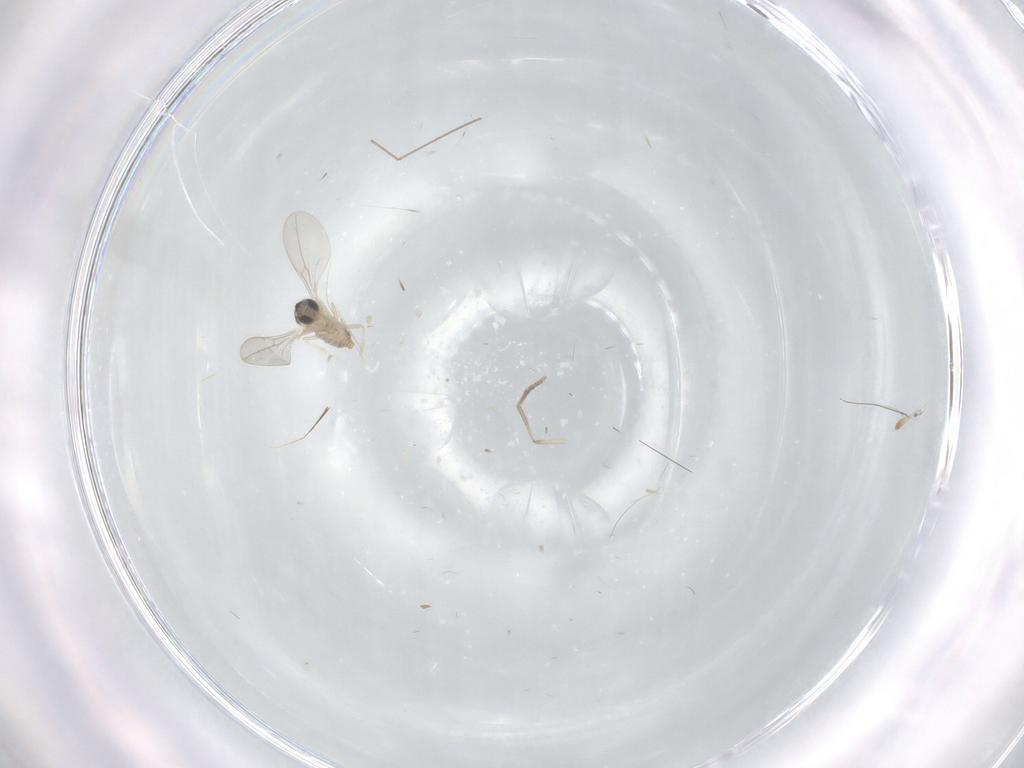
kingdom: Animalia
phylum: Arthropoda
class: Insecta
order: Diptera
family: Cecidomyiidae
